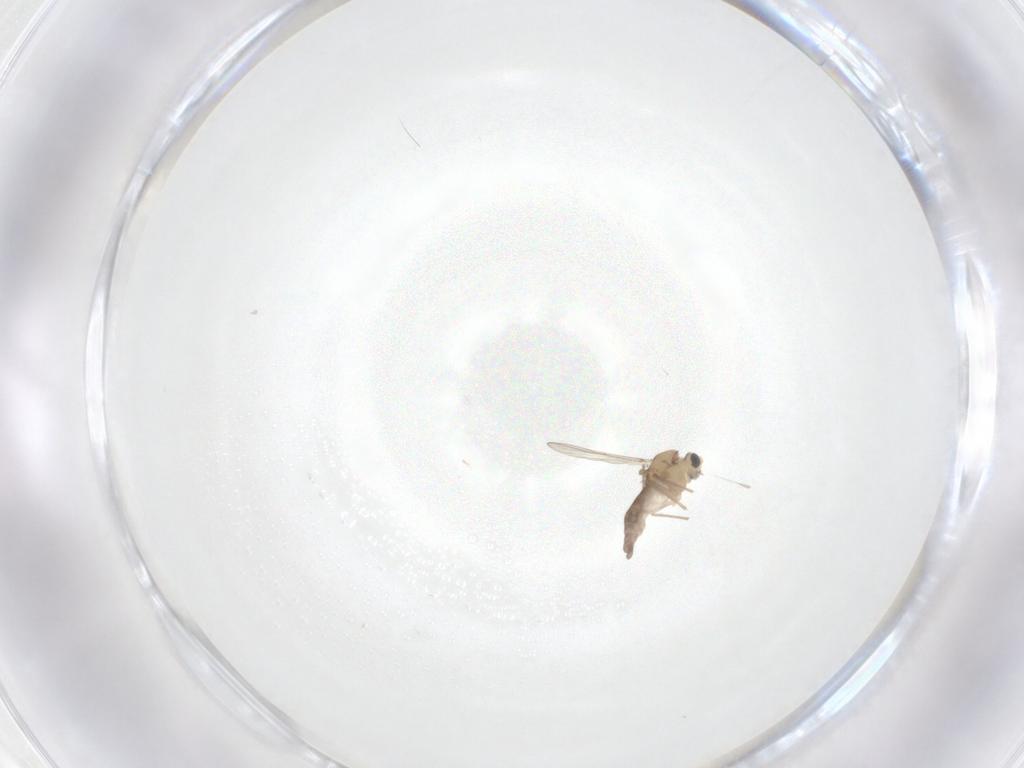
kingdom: Animalia
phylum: Arthropoda
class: Insecta
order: Diptera
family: Chironomidae
